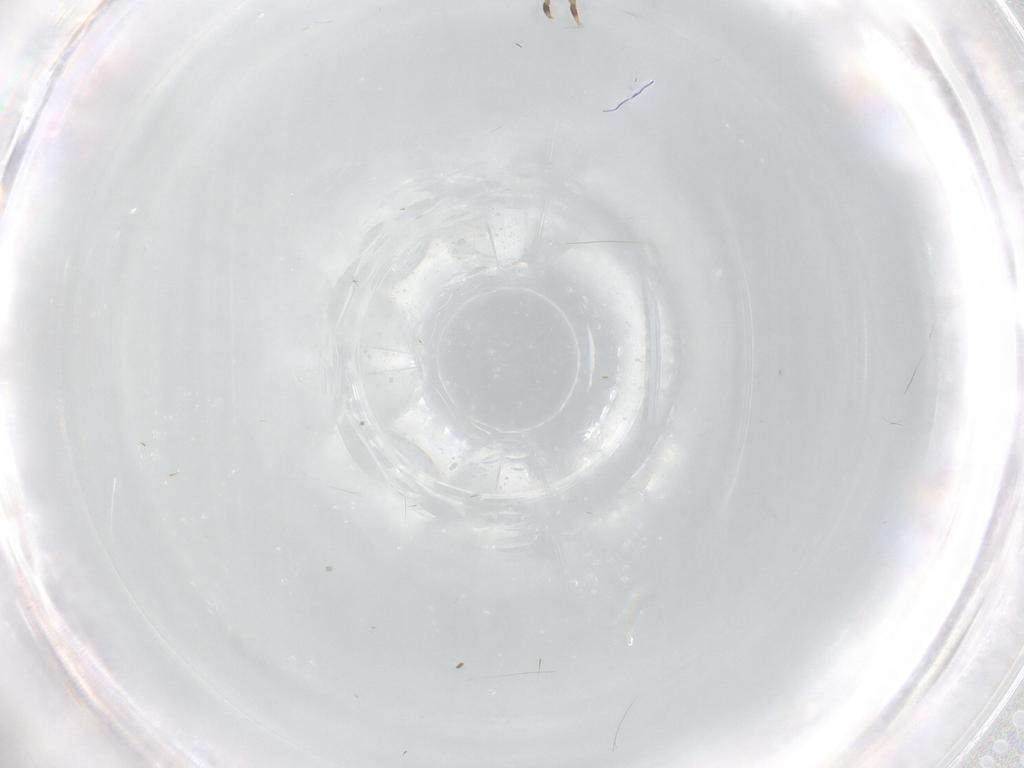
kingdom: Animalia
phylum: Arthropoda
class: Insecta
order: Hemiptera
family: Flatidae
